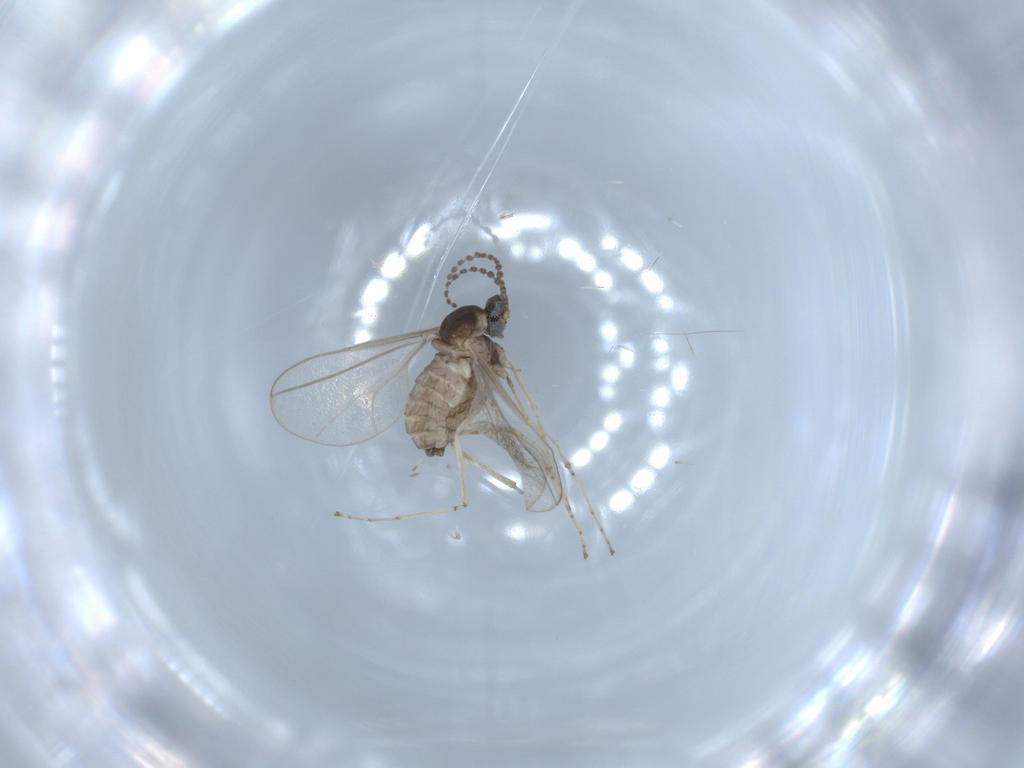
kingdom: Animalia
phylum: Arthropoda
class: Insecta
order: Diptera
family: Cecidomyiidae
